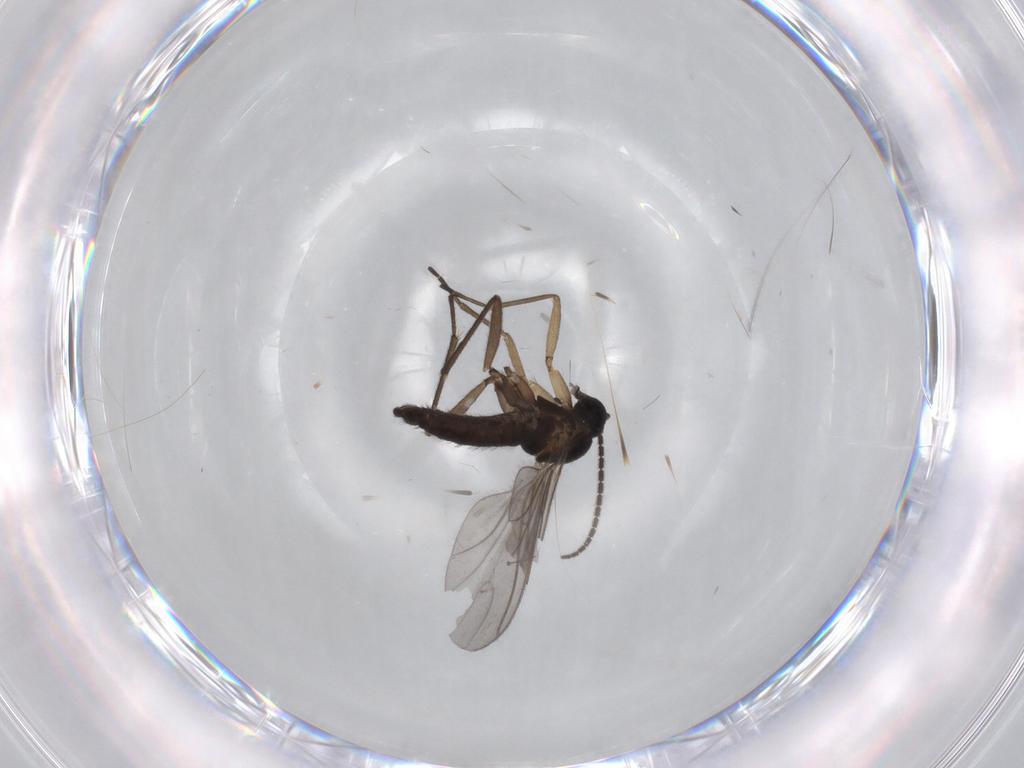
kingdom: Animalia
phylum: Arthropoda
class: Insecta
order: Diptera
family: Sciaridae
